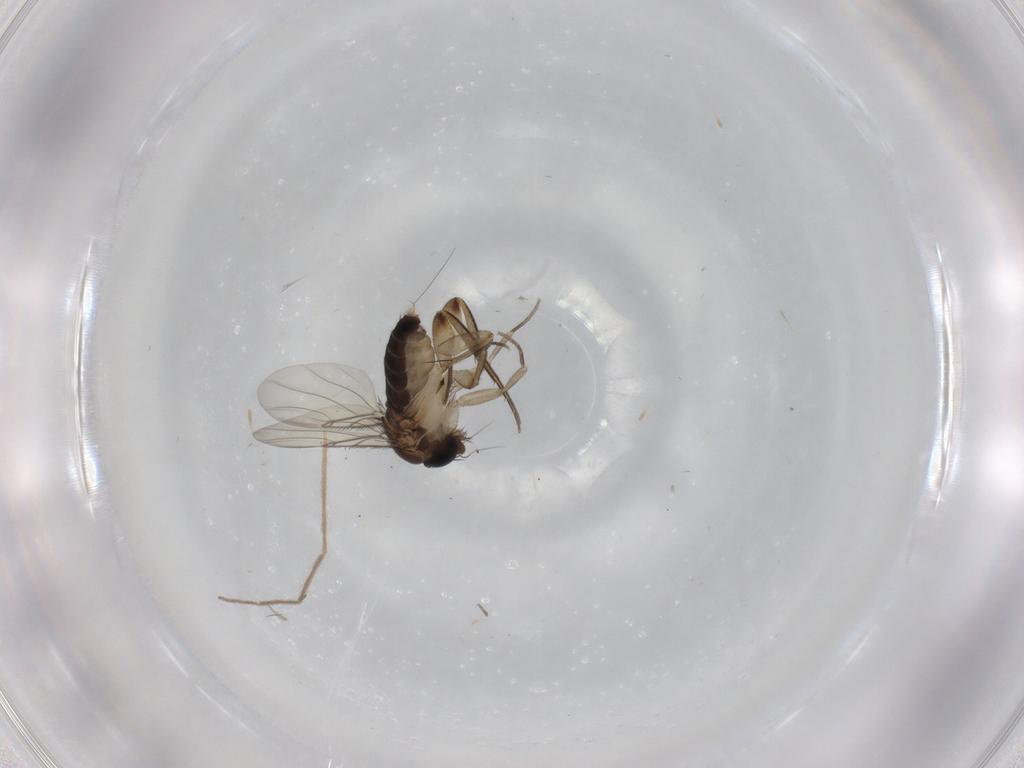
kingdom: Animalia
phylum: Arthropoda
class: Insecta
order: Diptera
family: Phoridae
